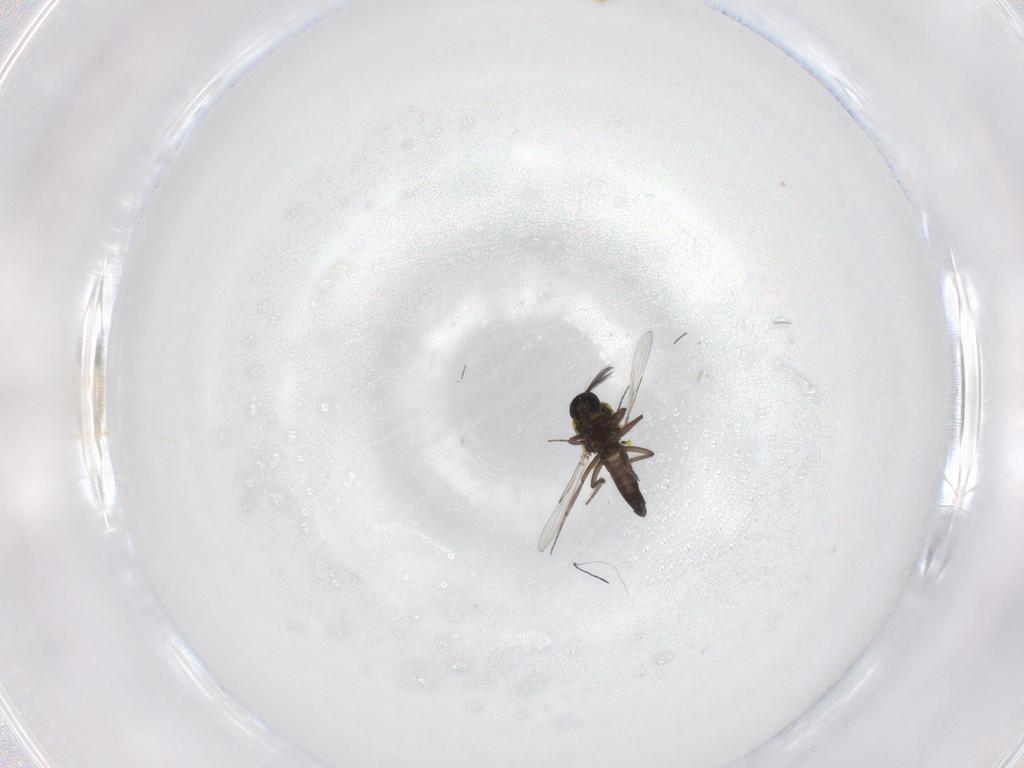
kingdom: Animalia
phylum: Arthropoda
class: Insecta
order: Diptera
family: Ceratopogonidae
